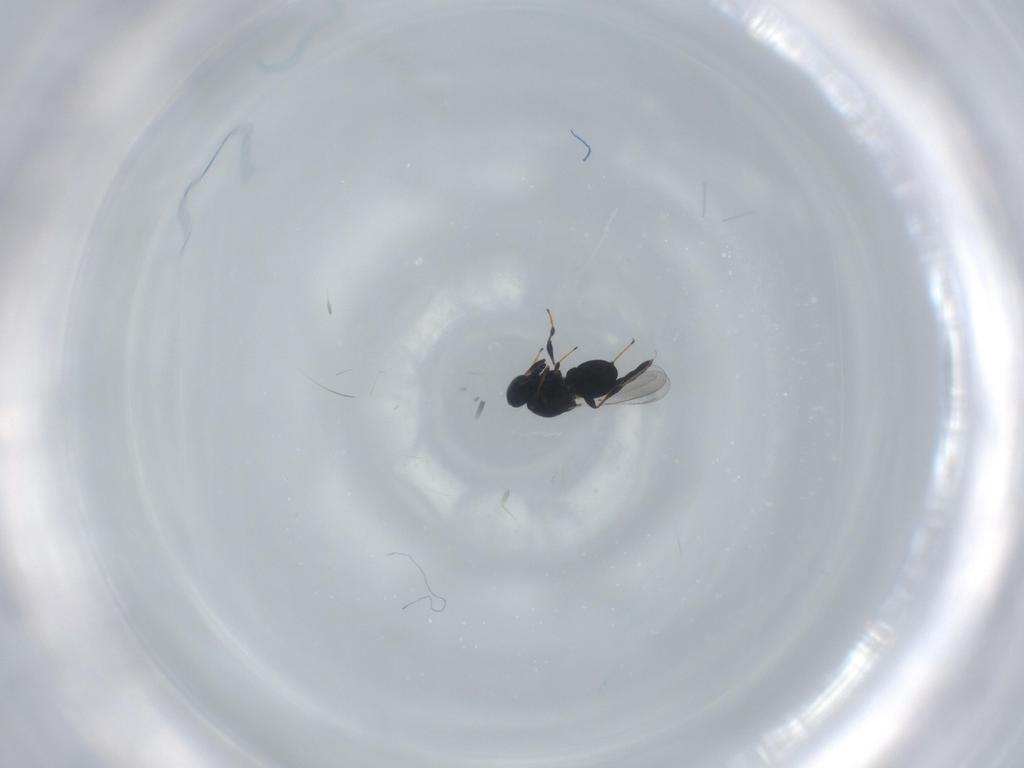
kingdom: Animalia
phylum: Arthropoda
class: Insecta
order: Hymenoptera
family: Platygastridae
